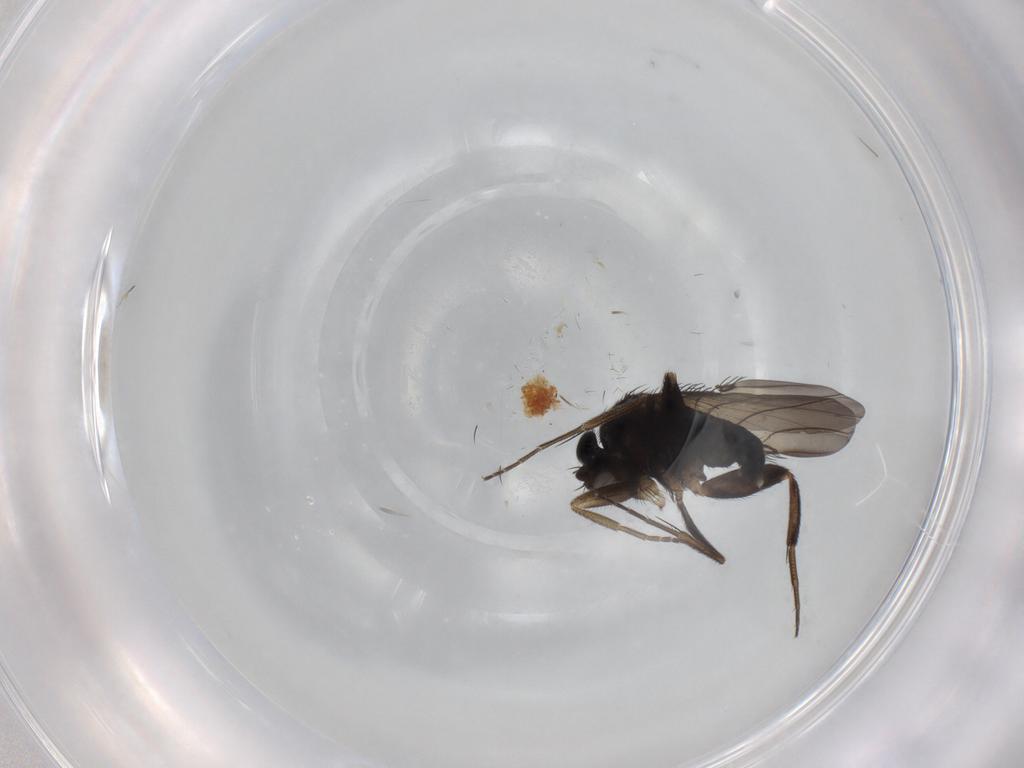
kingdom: Animalia
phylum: Arthropoda
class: Insecta
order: Diptera
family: Phoridae
